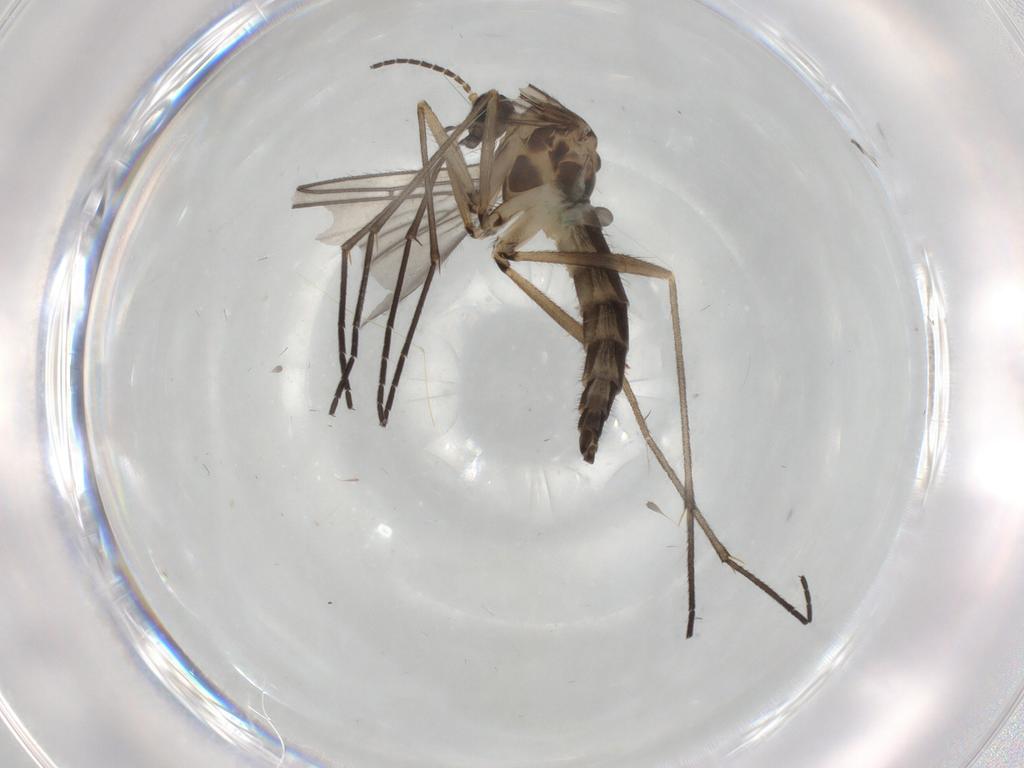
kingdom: Animalia
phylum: Arthropoda
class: Insecta
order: Diptera
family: Sciaridae
